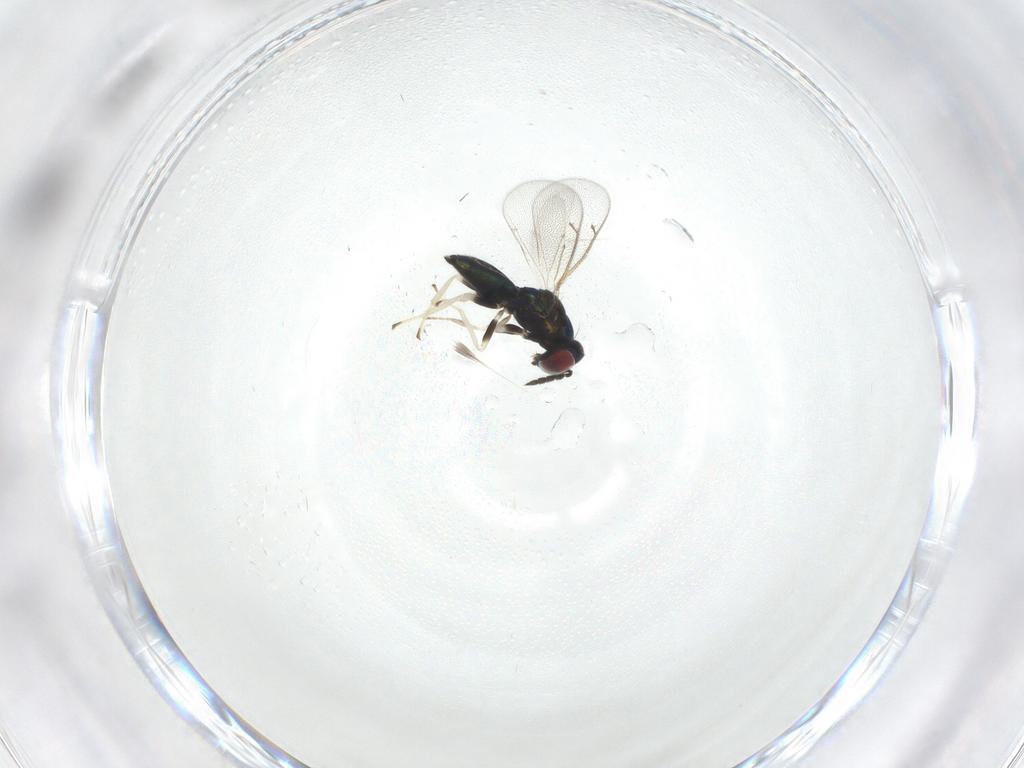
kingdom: Animalia
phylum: Arthropoda
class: Insecta
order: Hymenoptera
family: Eulophidae
